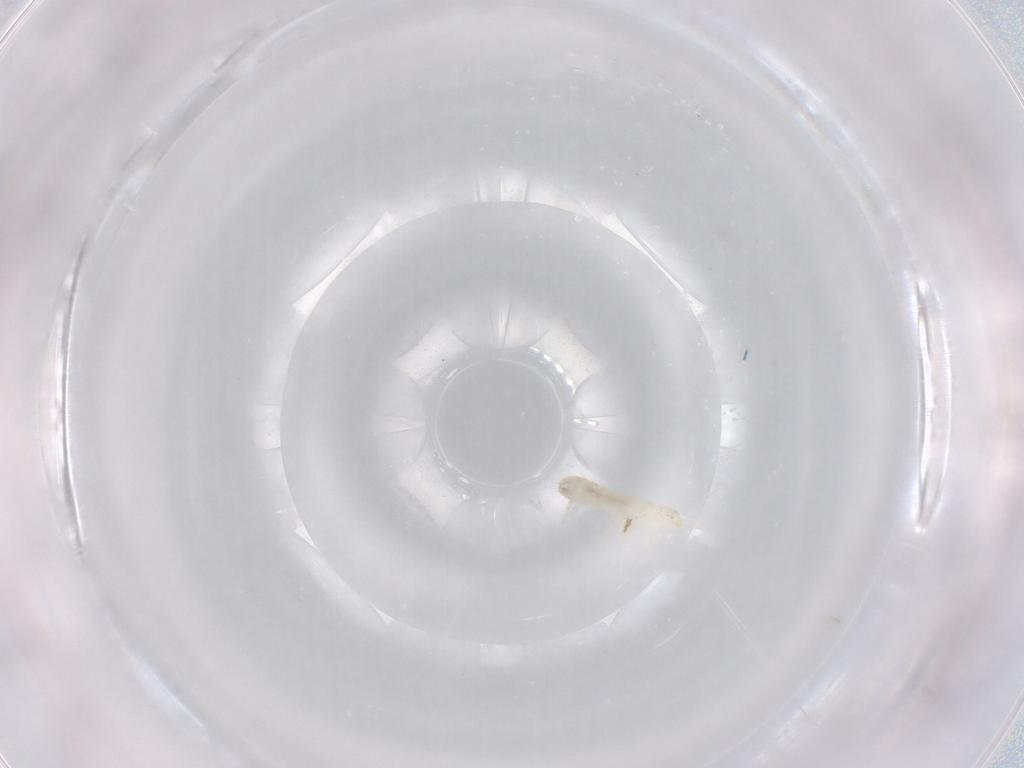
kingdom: Animalia
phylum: Arthropoda
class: Collembola
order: Entomobryomorpha
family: Isotomidae
